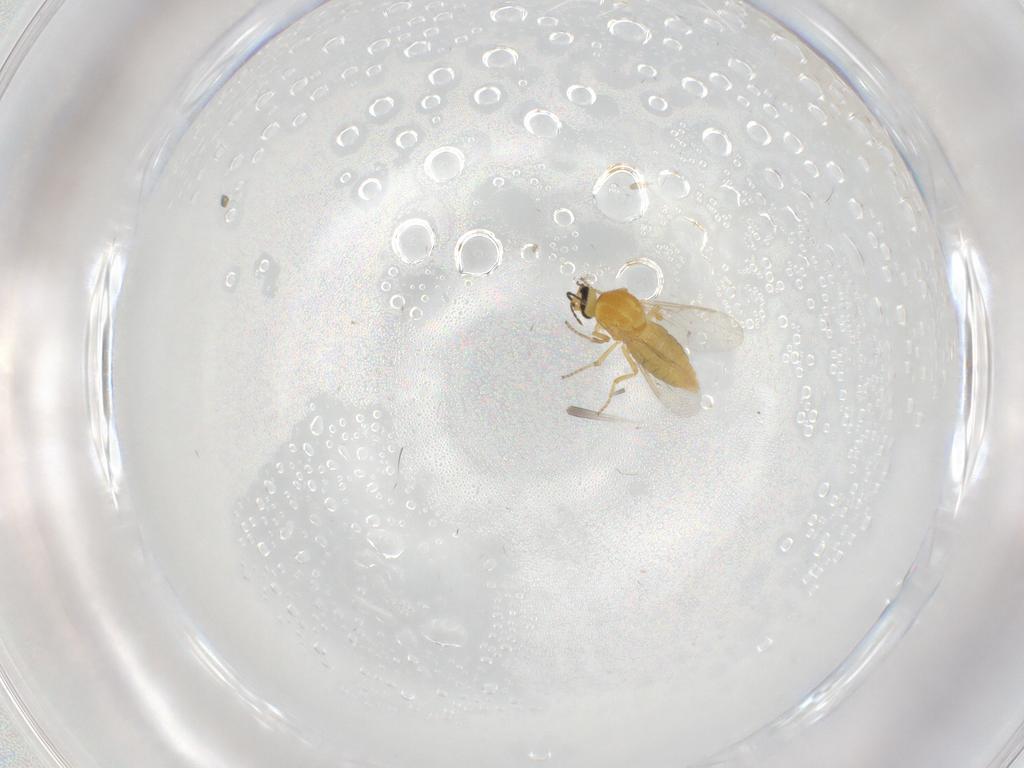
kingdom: Animalia
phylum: Arthropoda
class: Insecta
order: Diptera
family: Ceratopogonidae
